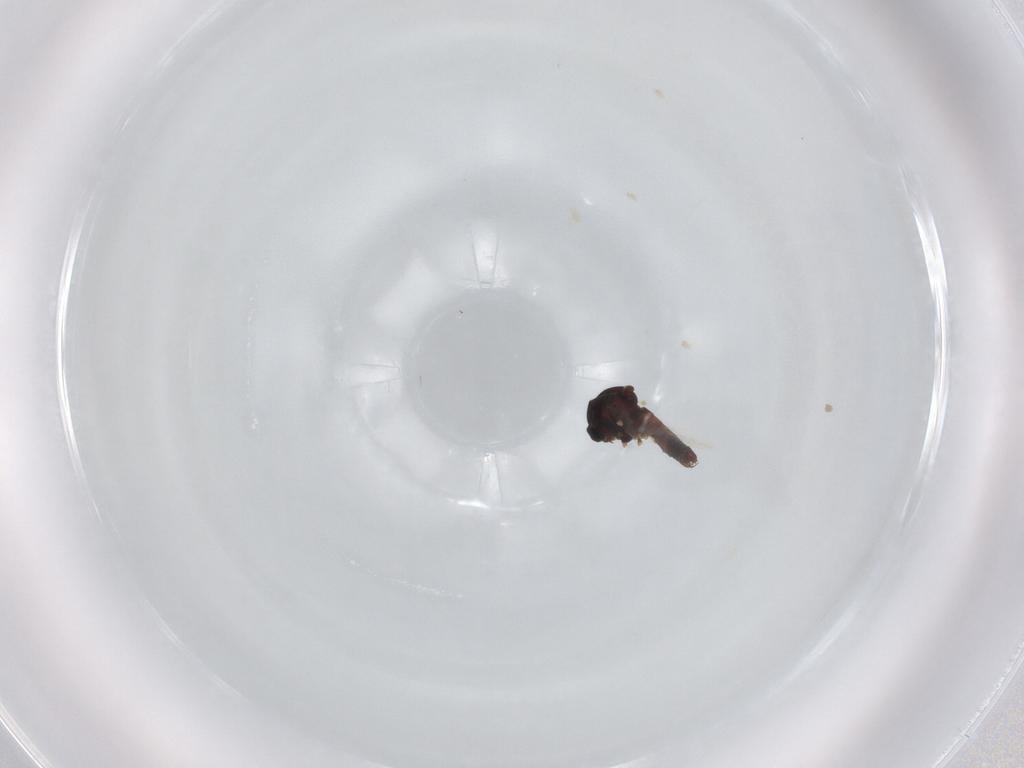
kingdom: Animalia
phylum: Arthropoda
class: Insecta
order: Diptera
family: Ceratopogonidae
